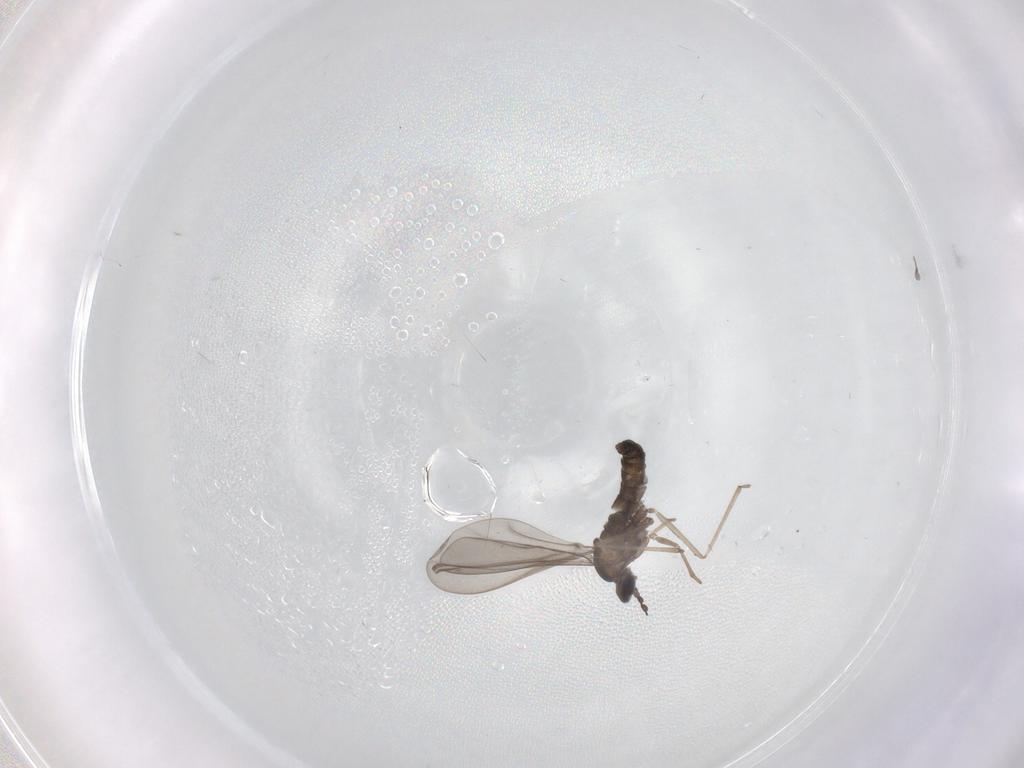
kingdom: Animalia
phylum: Arthropoda
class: Insecta
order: Diptera
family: Cecidomyiidae
